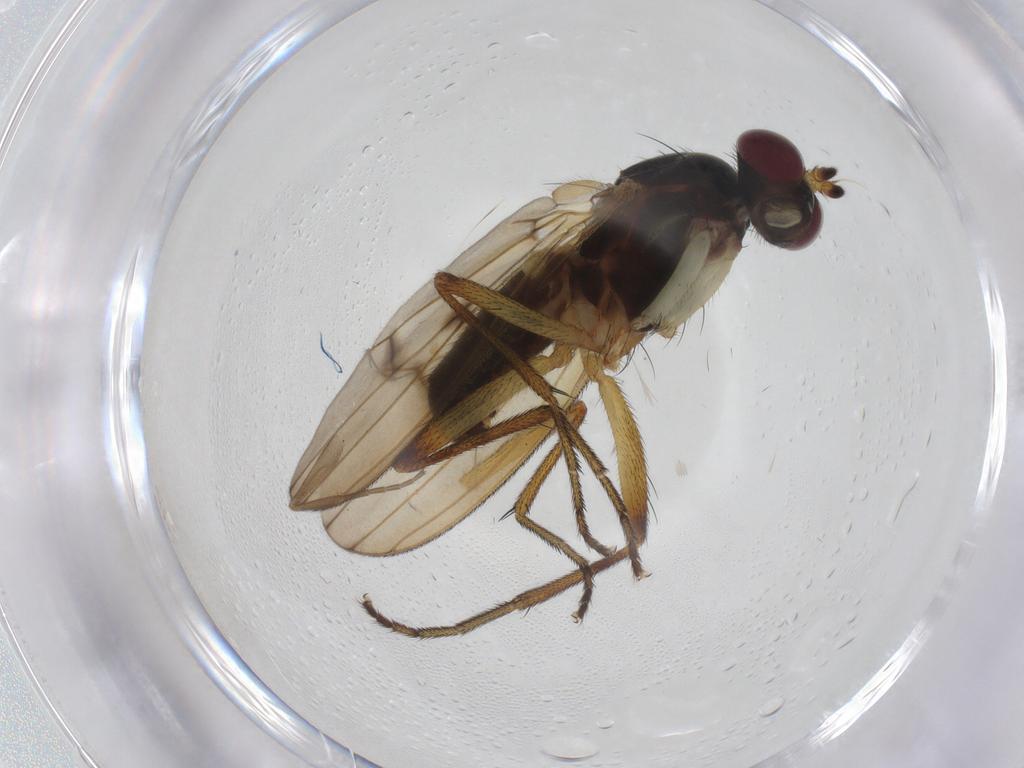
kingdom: Animalia
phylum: Arthropoda
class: Insecta
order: Diptera
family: Sciomyzidae
